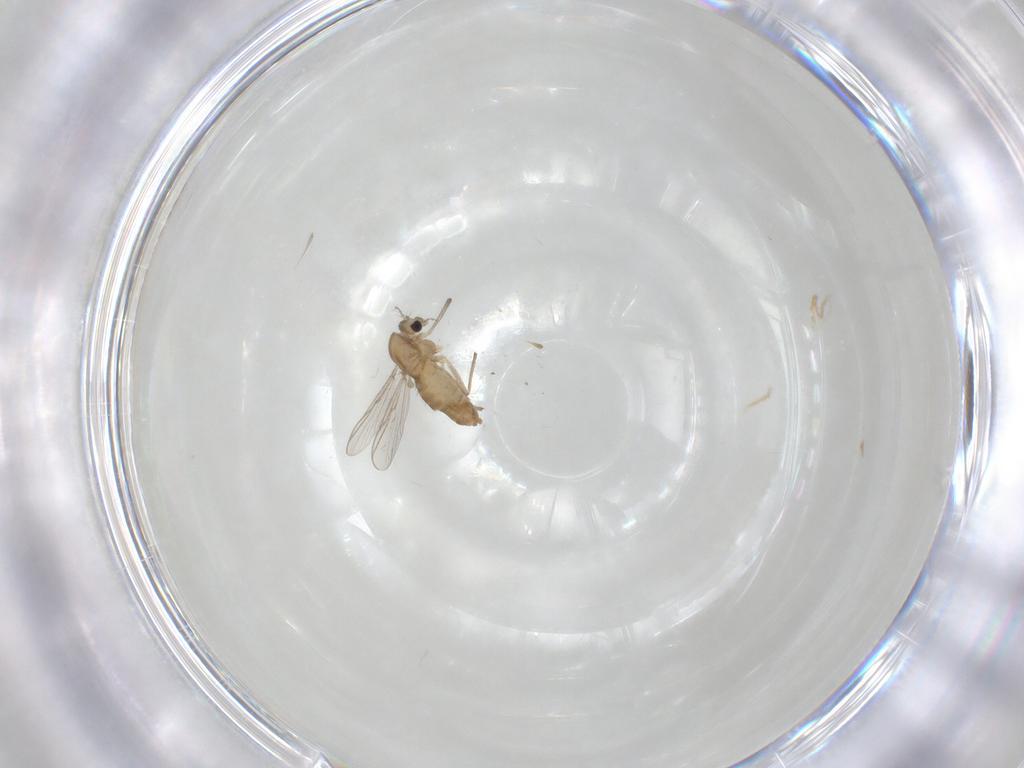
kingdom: Animalia
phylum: Arthropoda
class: Insecta
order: Diptera
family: Chironomidae
